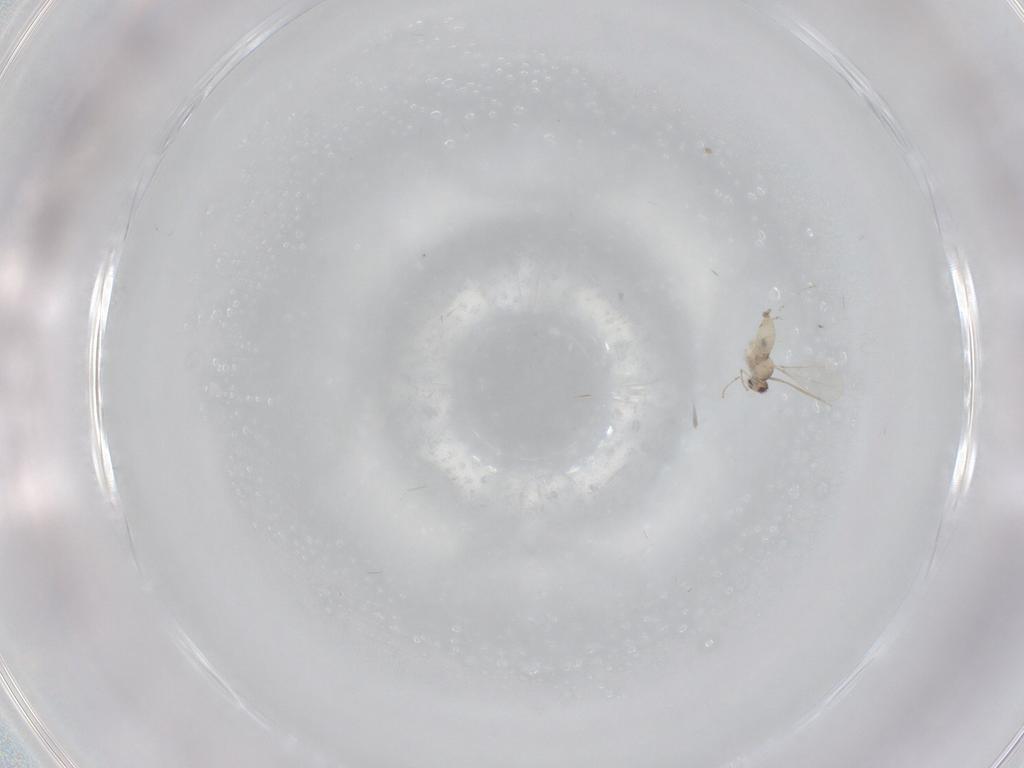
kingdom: Animalia
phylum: Arthropoda
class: Insecta
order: Diptera
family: Cecidomyiidae
